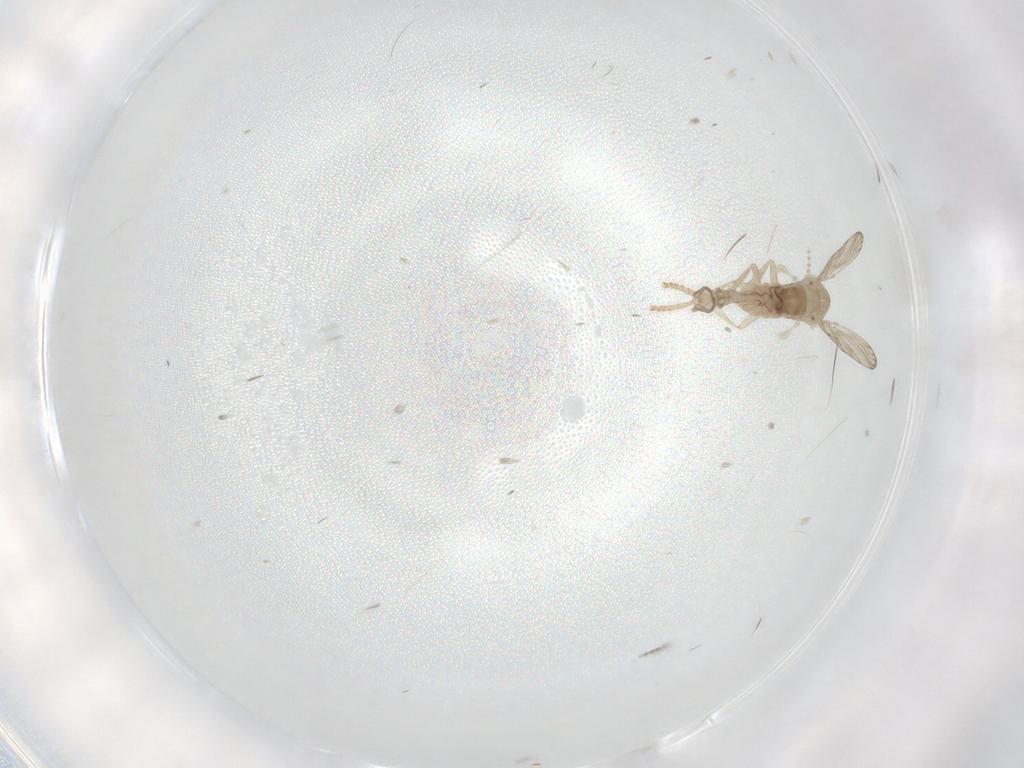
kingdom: Animalia
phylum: Arthropoda
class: Insecta
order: Diptera
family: Psychodidae
